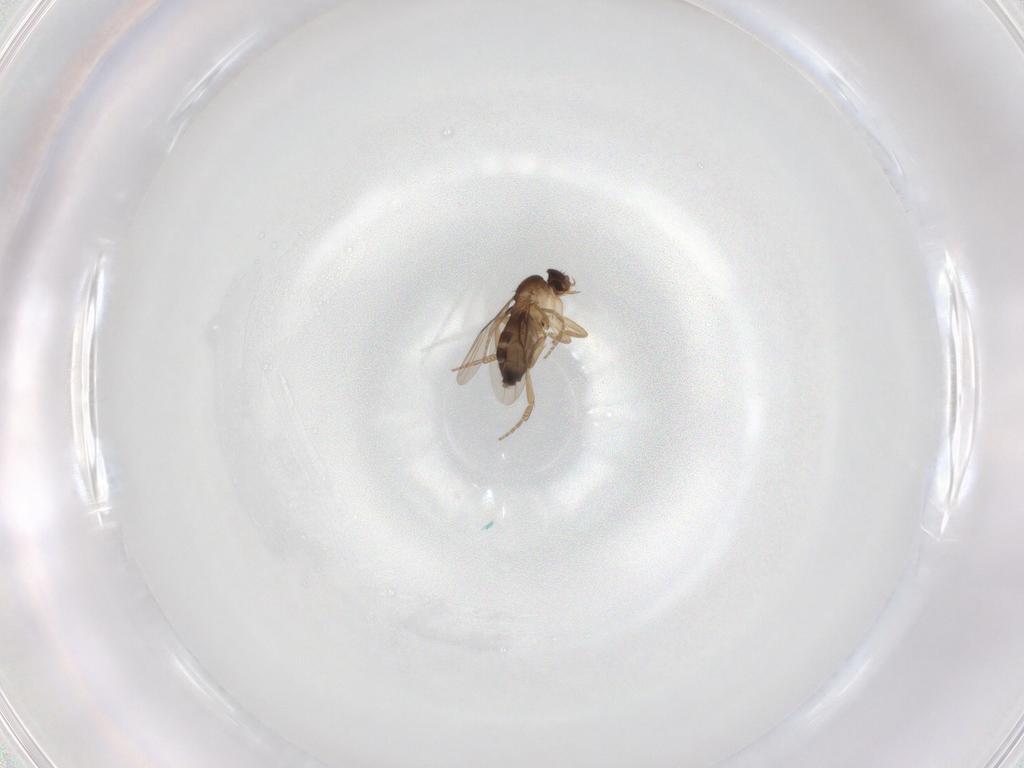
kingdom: Animalia
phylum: Arthropoda
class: Insecta
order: Diptera
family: Phoridae
